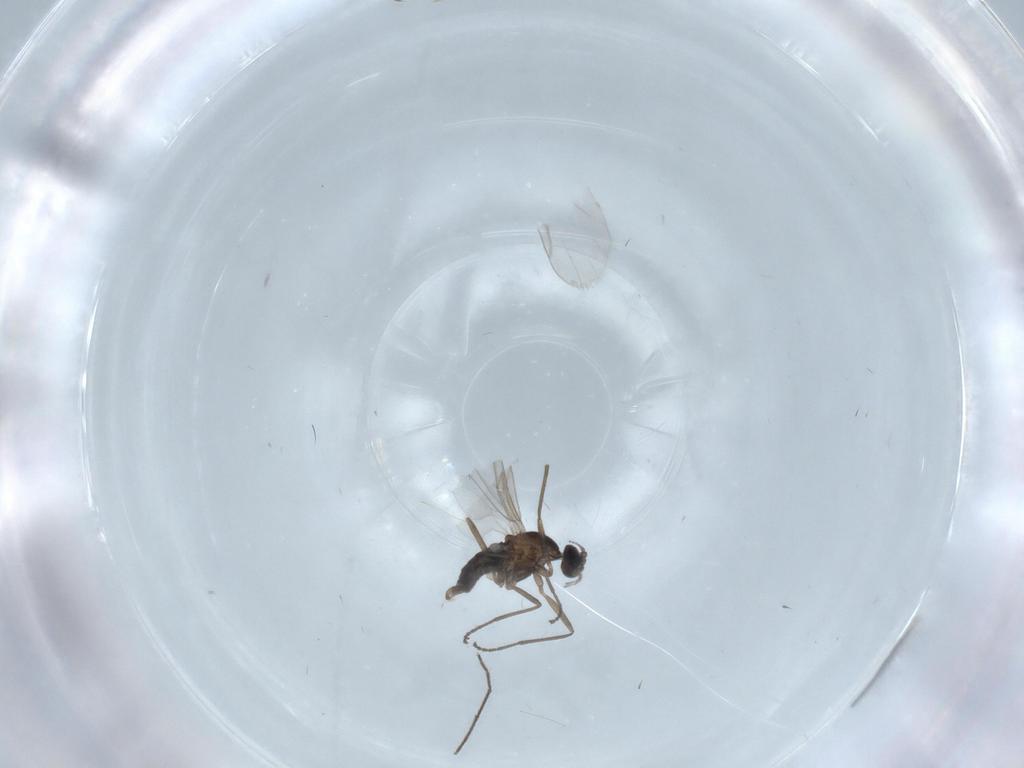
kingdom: Animalia
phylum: Arthropoda
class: Insecta
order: Diptera
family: Cecidomyiidae
